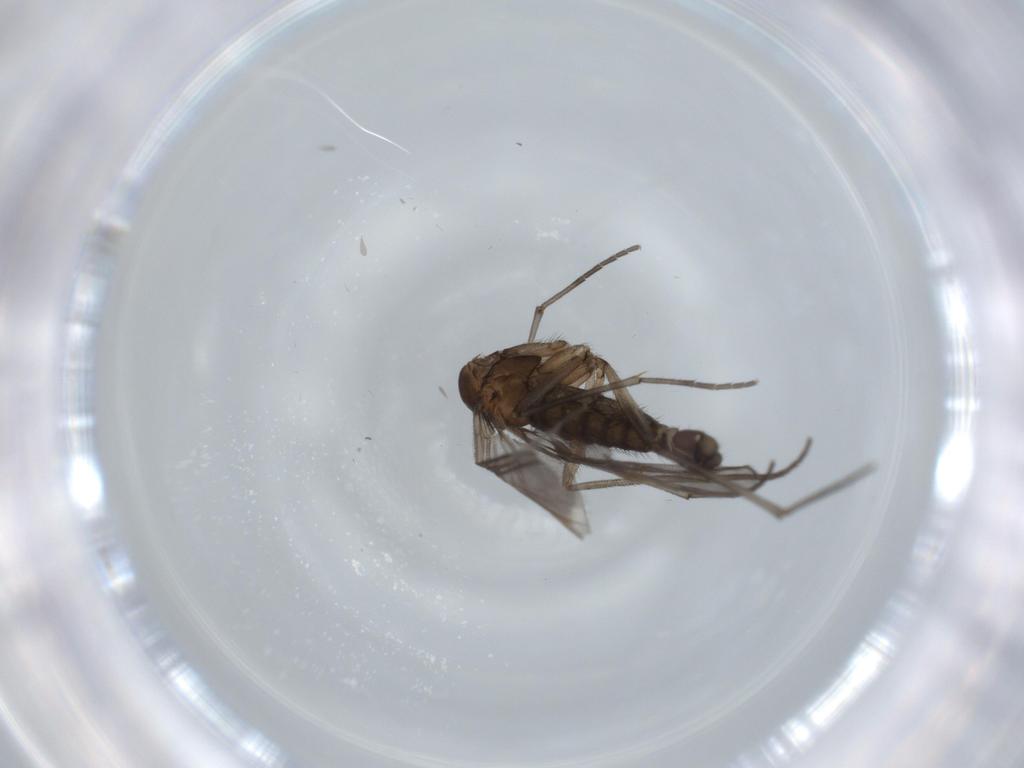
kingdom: Animalia
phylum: Arthropoda
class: Insecta
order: Diptera
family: Sciaridae
